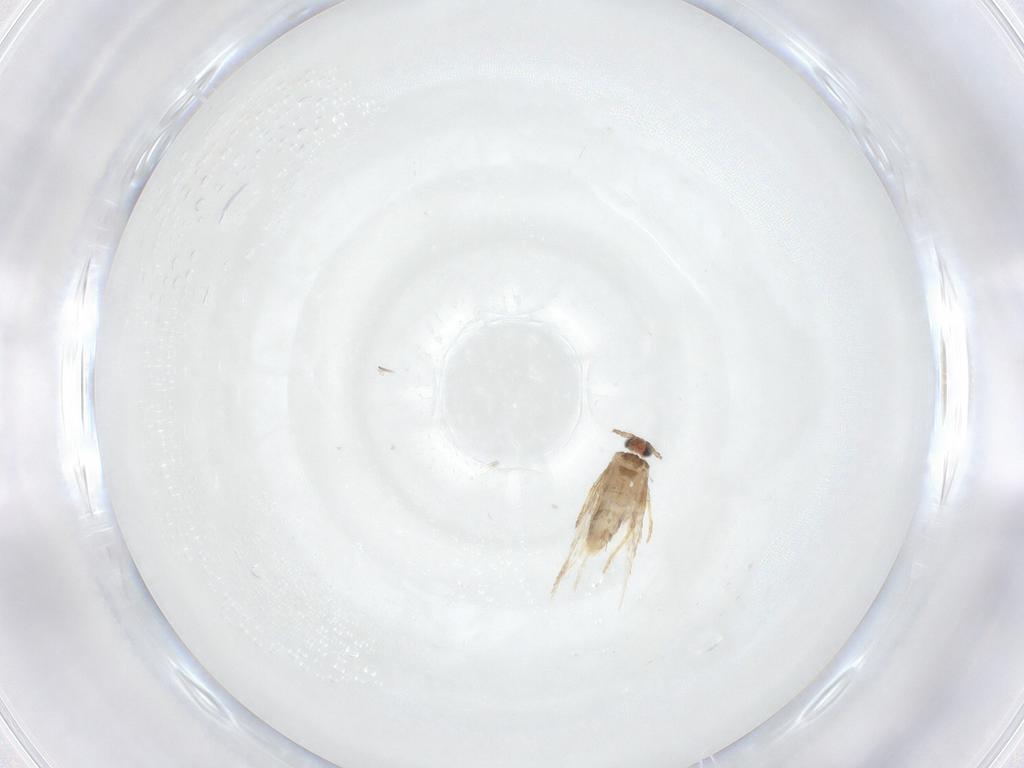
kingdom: Animalia
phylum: Arthropoda
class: Insecta
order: Lepidoptera
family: Nepticulidae
